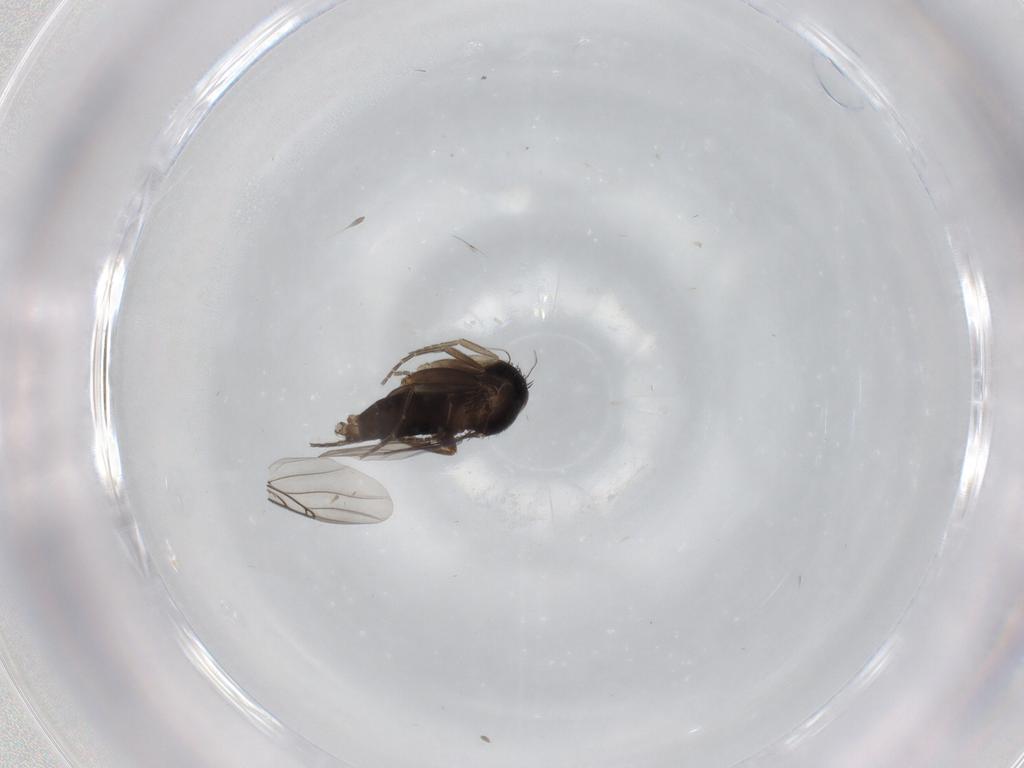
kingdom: Animalia
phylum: Arthropoda
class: Insecta
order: Diptera
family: Phoridae
